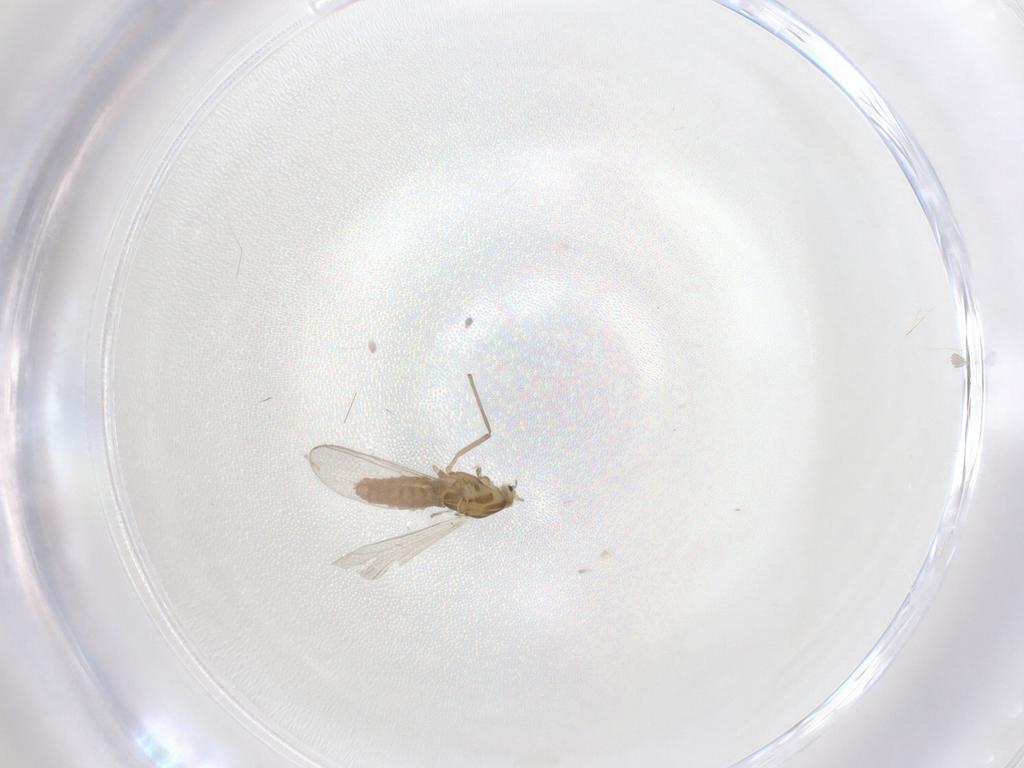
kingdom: Animalia
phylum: Arthropoda
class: Insecta
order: Diptera
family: Chironomidae
